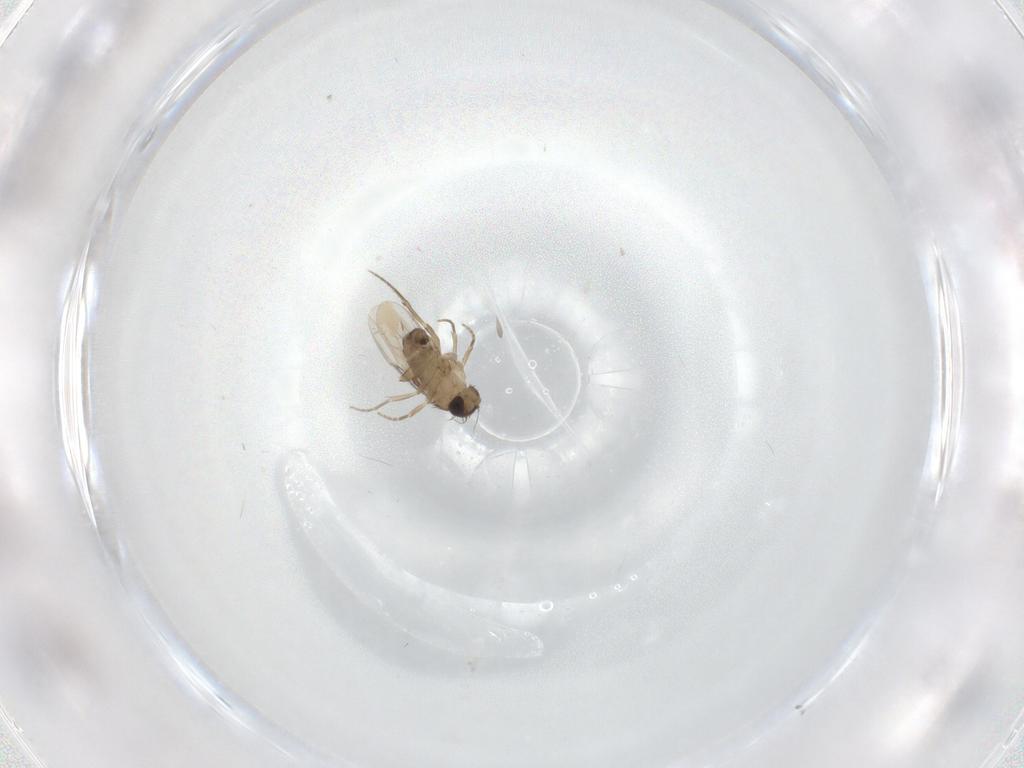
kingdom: Animalia
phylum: Arthropoda
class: Insecta
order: Diptera
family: Phoridae
